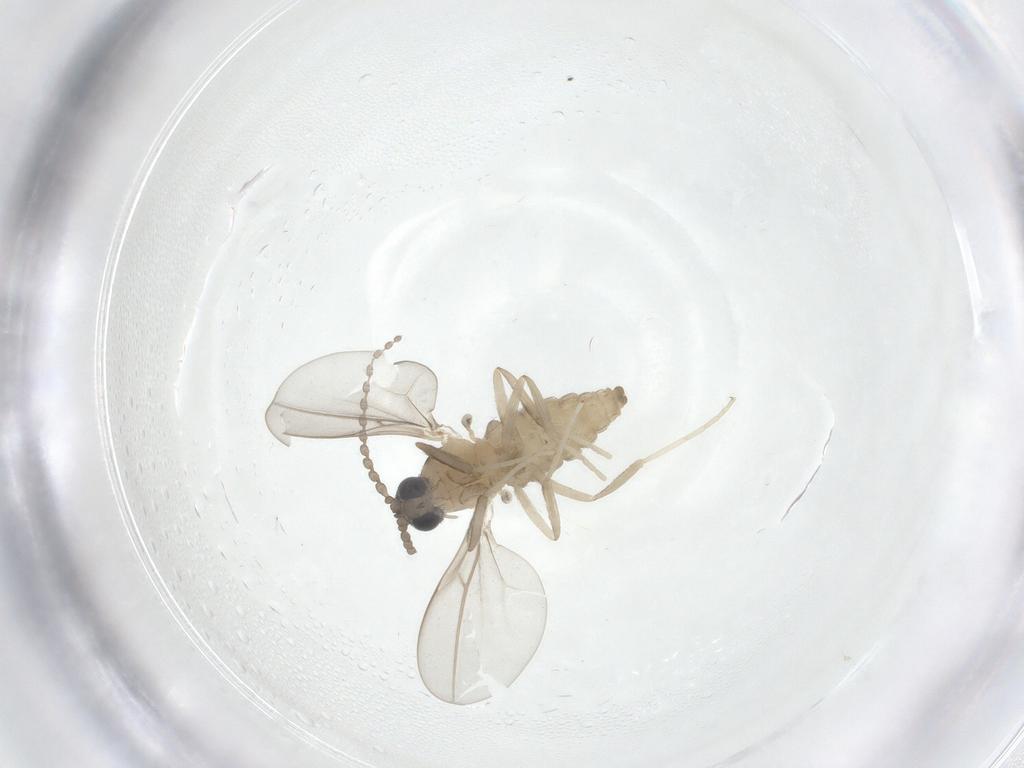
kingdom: Animalia
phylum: Arthropoda
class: Insecta
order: Diptera
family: Cecidomyiidae
